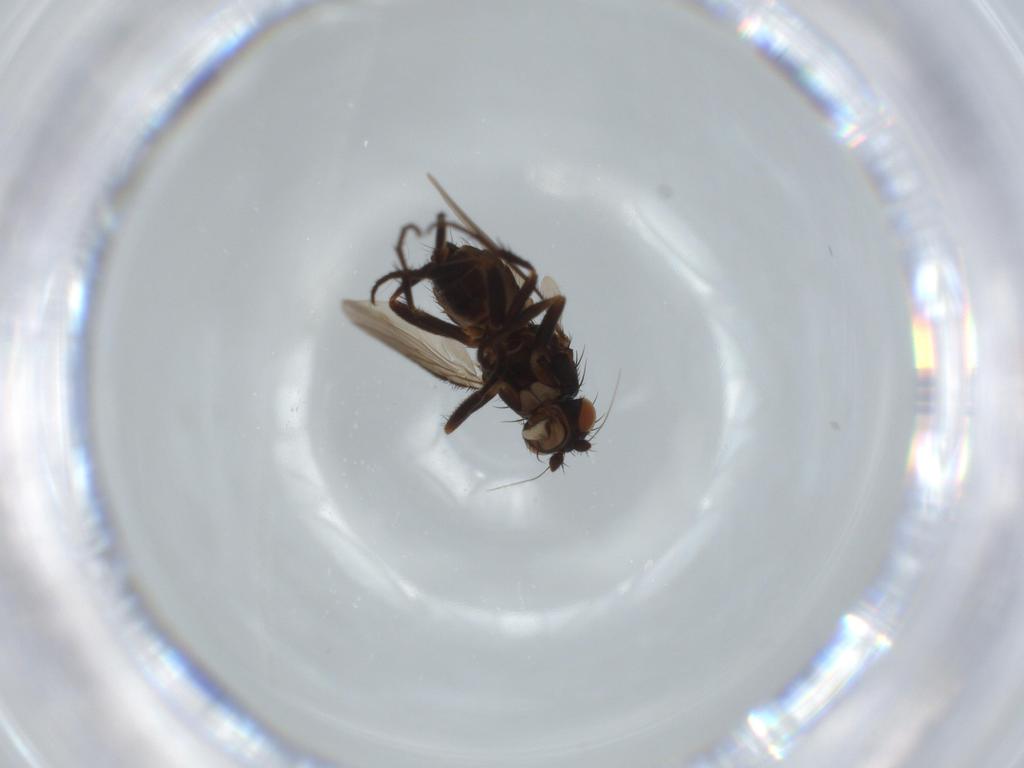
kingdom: Animalia
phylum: Arthropoda
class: Insecta
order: Diptera
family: Sphaeroceridae
